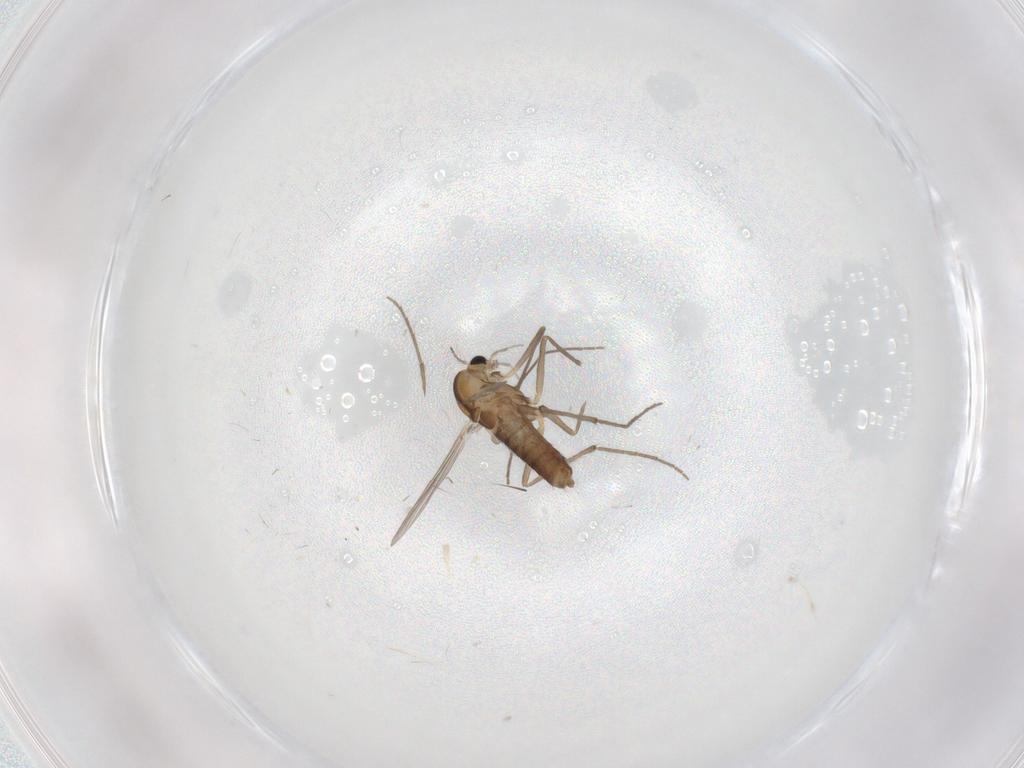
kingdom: Animalia
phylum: Arthropoda
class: Insecta
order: Diptera
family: Chironomidae
